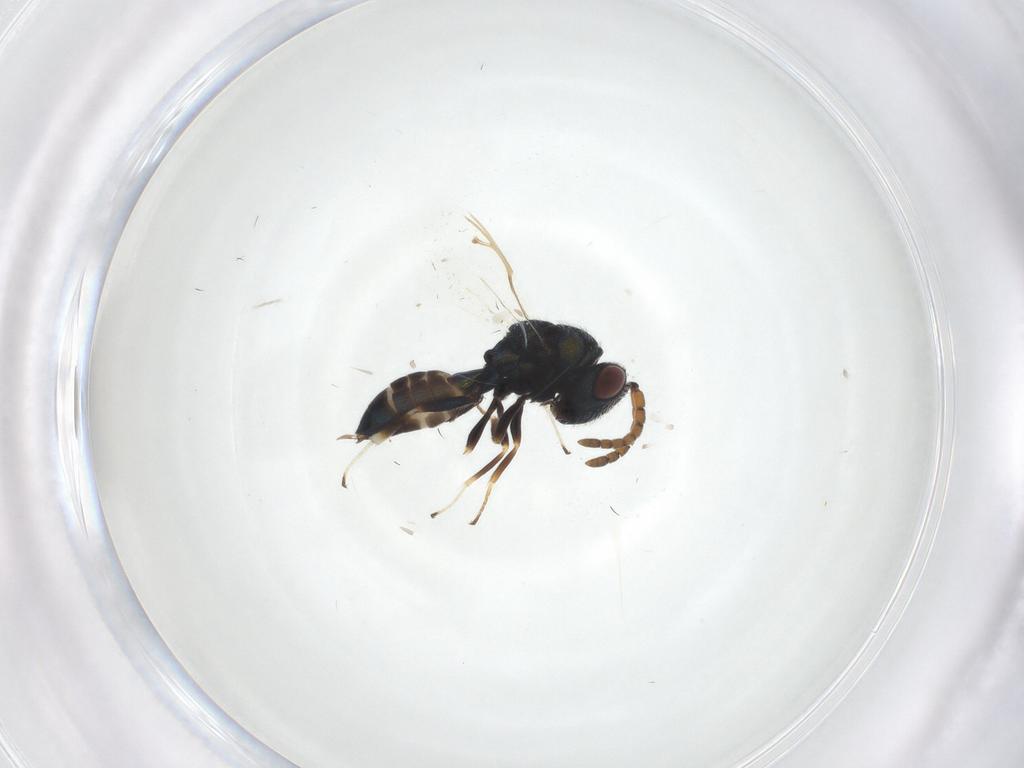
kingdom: Animalia
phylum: Arthropoda
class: Insecta
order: Hymenoptera
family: Pteromalidae
